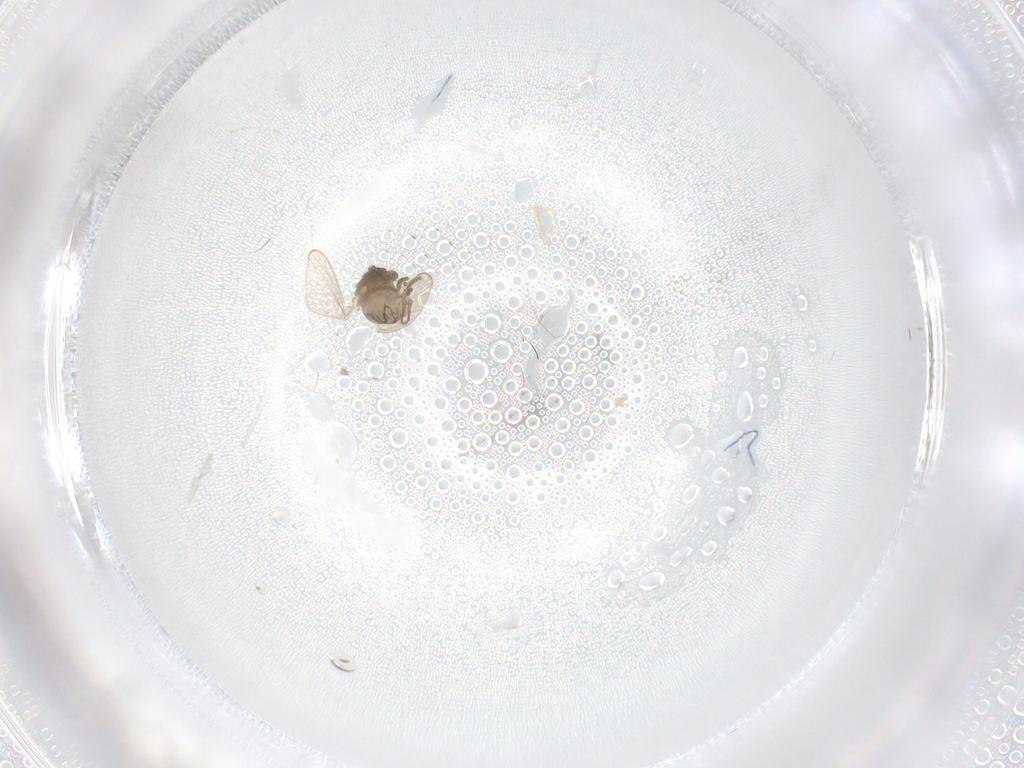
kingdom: Animalia
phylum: Arthropoda
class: Insecta
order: Diptera
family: Psychodidae
